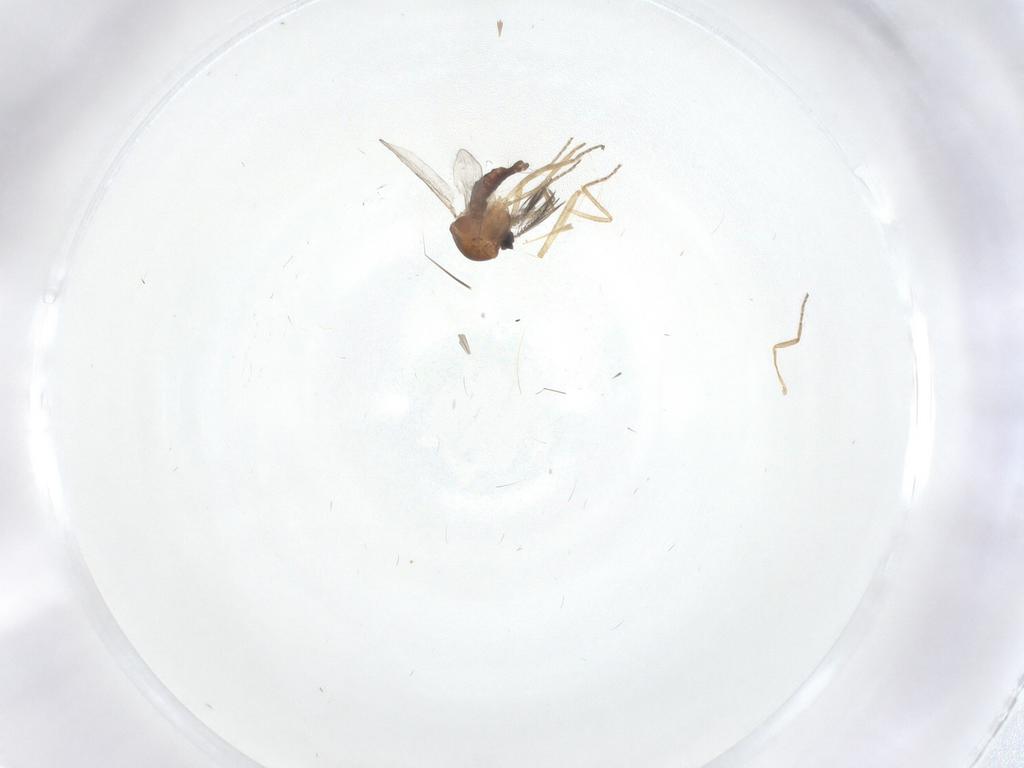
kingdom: Animalia
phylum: Arthropoda
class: Insecta
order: Diptera
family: Ceratopogonidae
